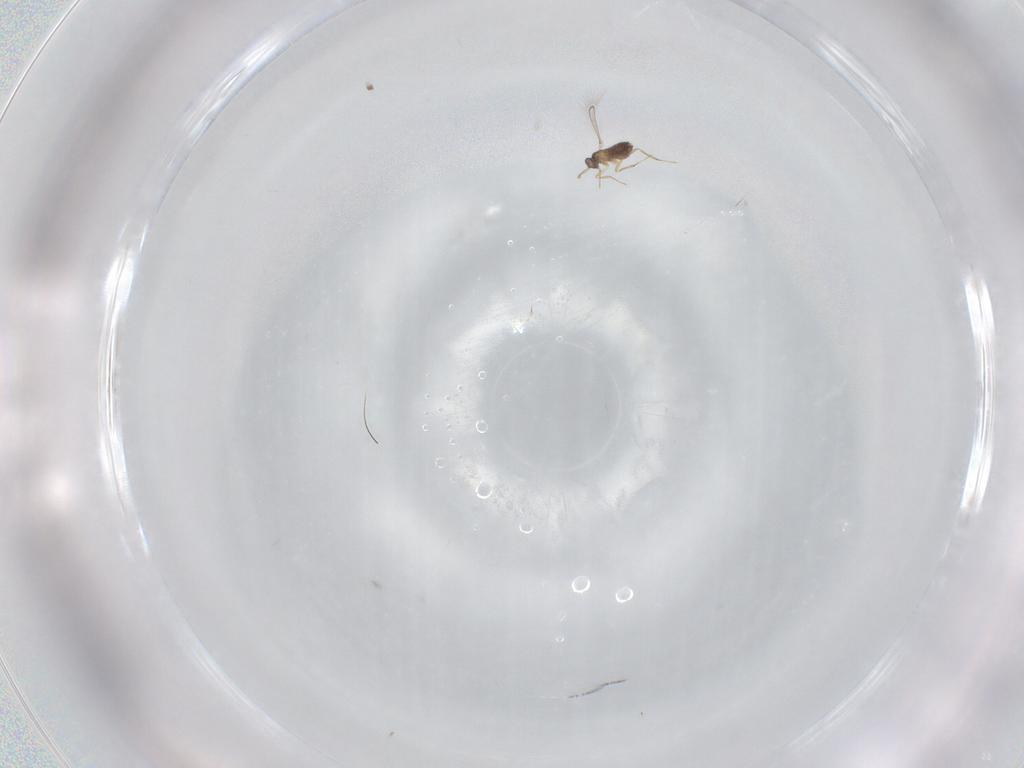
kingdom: Animalia
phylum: Arthropoda
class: Insecta
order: Hymenoptera
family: Mymaridae
